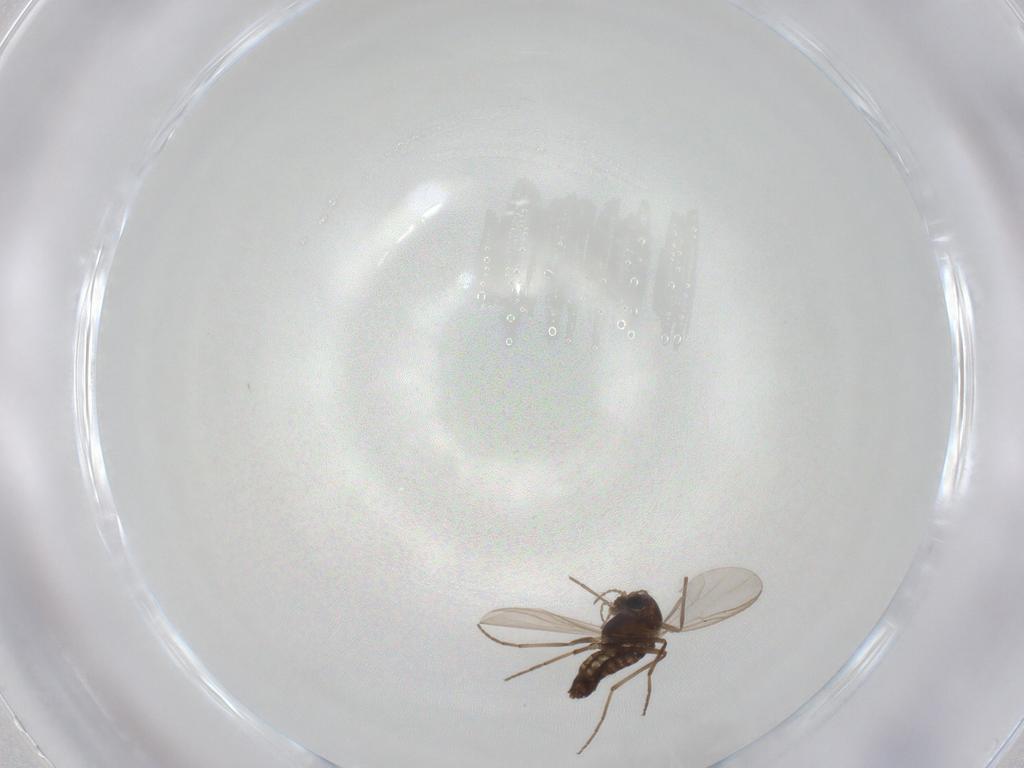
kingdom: Animalia
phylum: Arthropoda
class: Insecta
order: Diptera
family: Chironomidae
